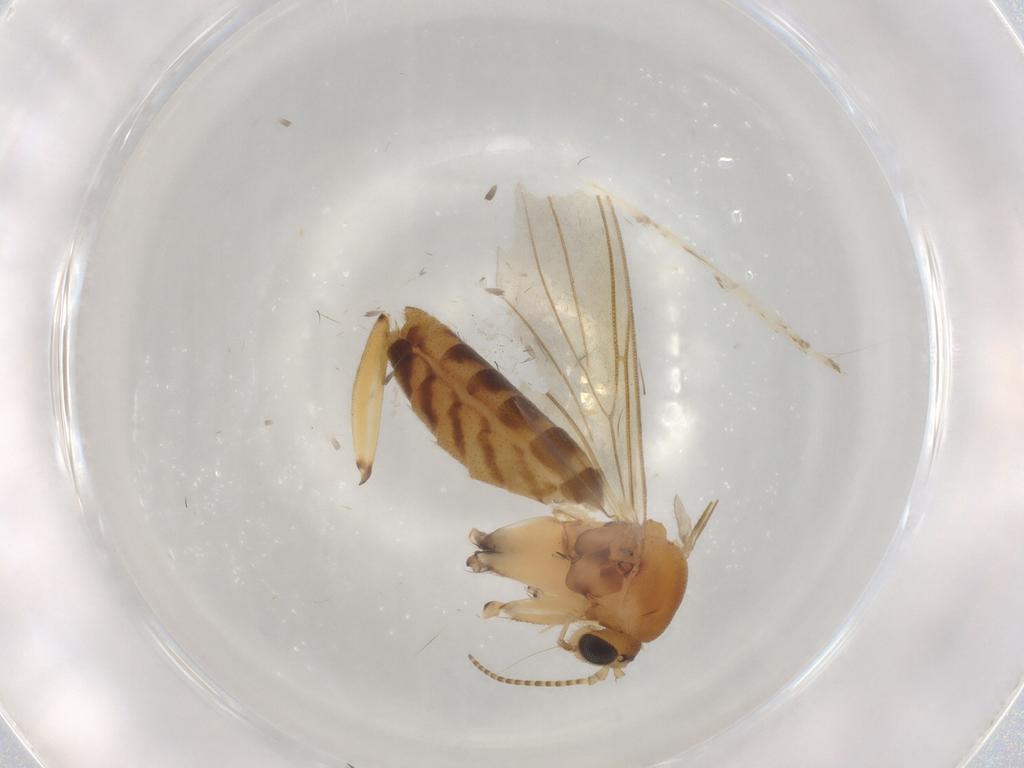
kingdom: Animalia
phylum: Arthropoda
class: Insecta
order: Diptera
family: Mycetophilidae
